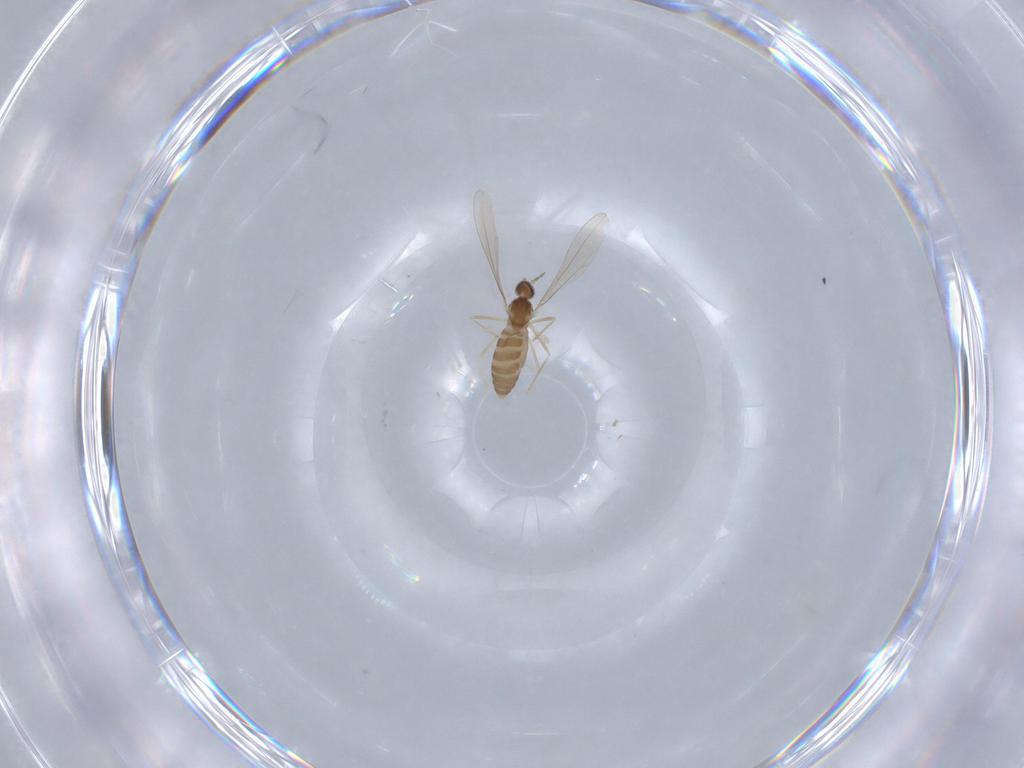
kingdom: Animalia
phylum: Arthropoda
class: Insecta
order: Diptera
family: Cecidomyiidae
